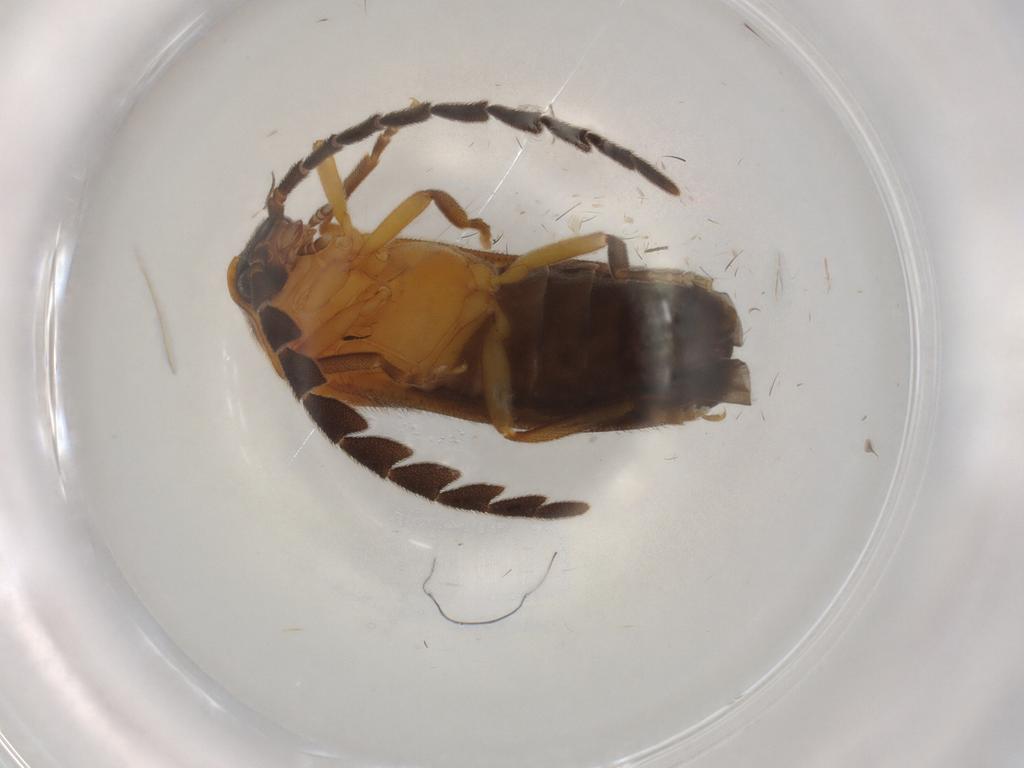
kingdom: Animalia
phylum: Arthropoda
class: Insecta
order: Coleoptera
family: Lampyridae
